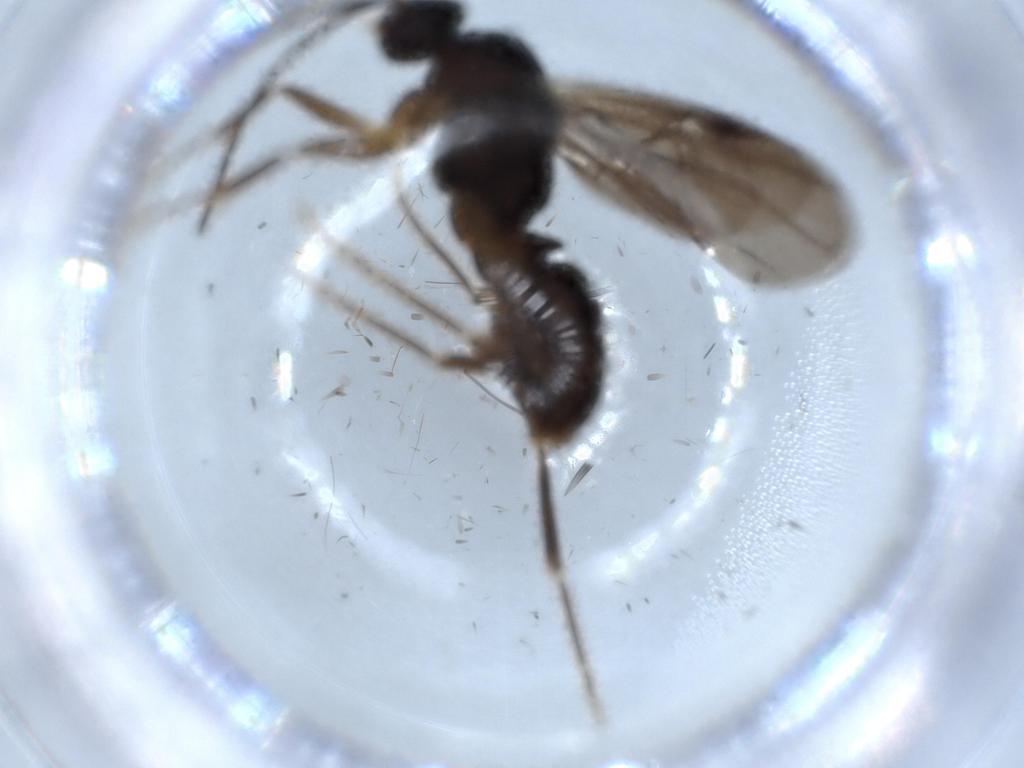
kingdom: Animalia
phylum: Arthropoda
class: Insecta
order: Hymenoptera
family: Formicidae
